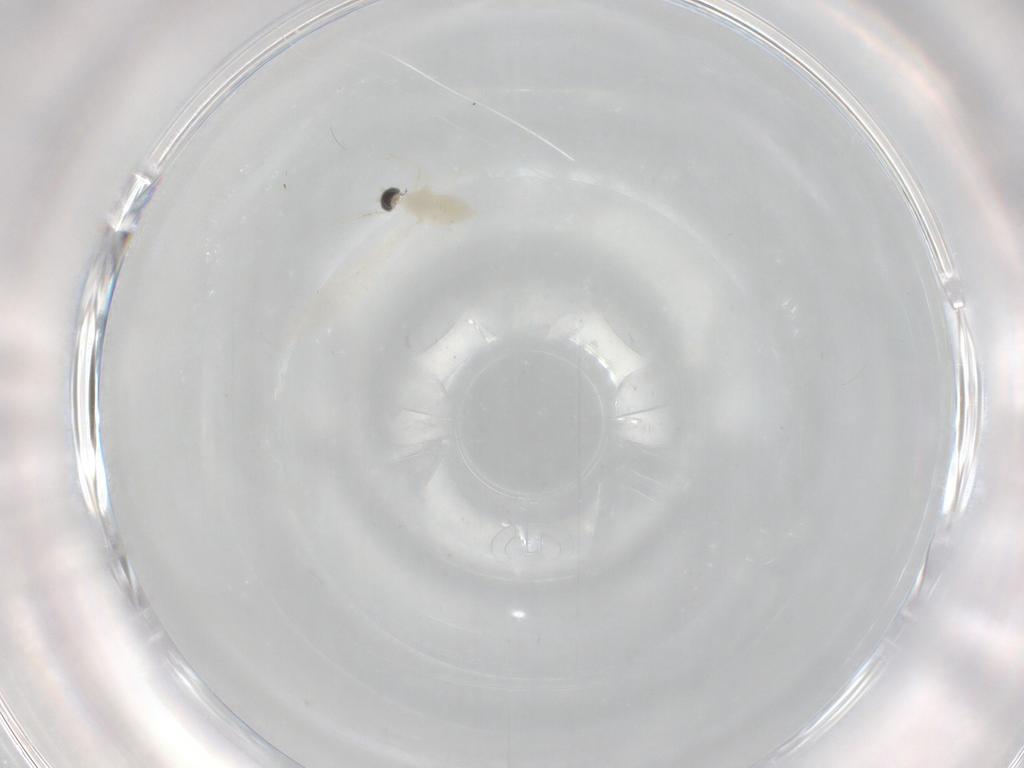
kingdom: Animalia
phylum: Arthropoda
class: Insecta
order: Diptera
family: Cecidomyiidae
